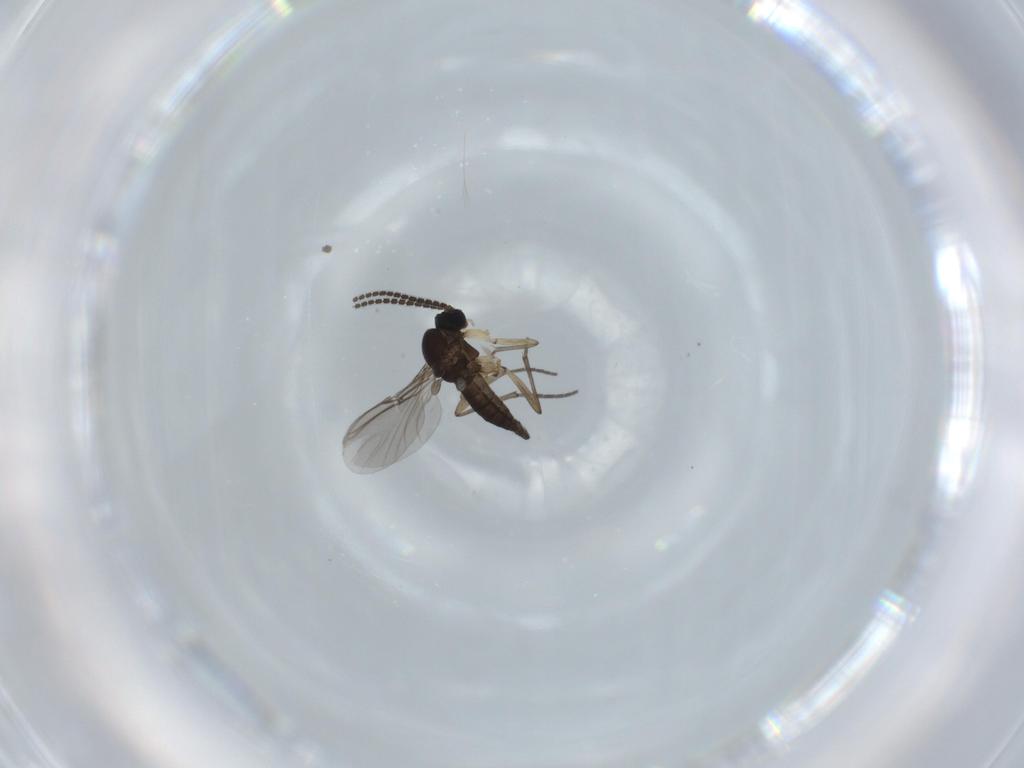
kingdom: Animalia
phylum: Arthropoda
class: Insecta
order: Diptera
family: Sciaridae
